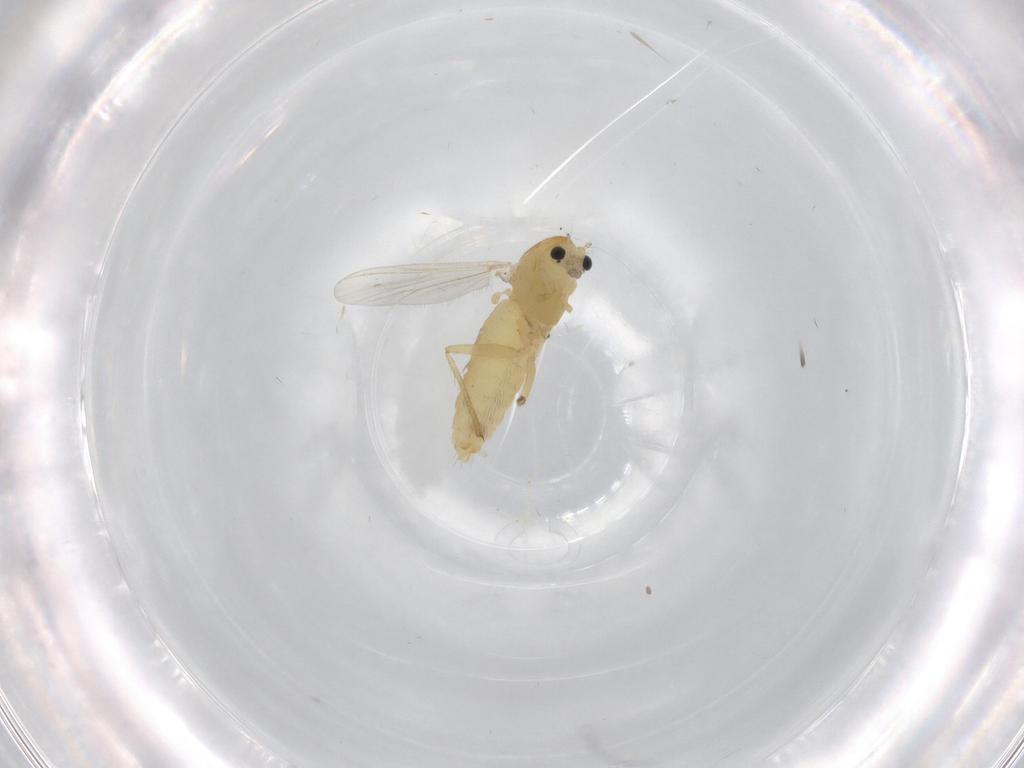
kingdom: Animalia
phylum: Arthropoda
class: Insecta
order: Diptera
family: Chironomidae
